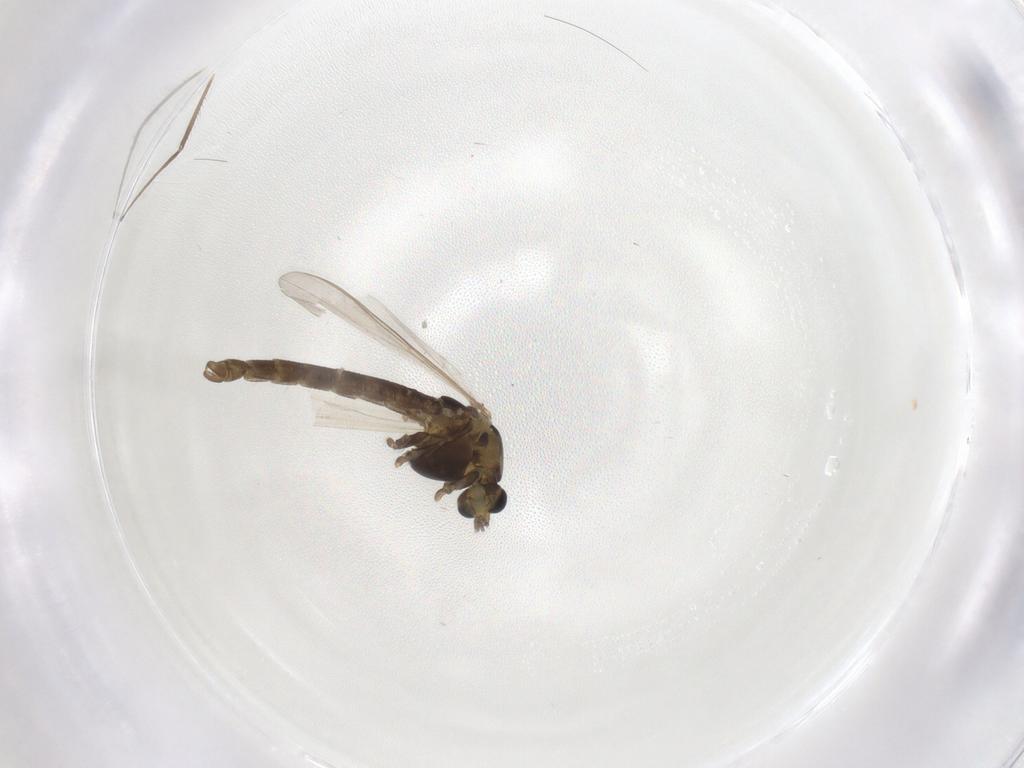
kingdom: Animalia
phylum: Arthropoda
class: Insecta
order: Diptera
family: Chironomidae
